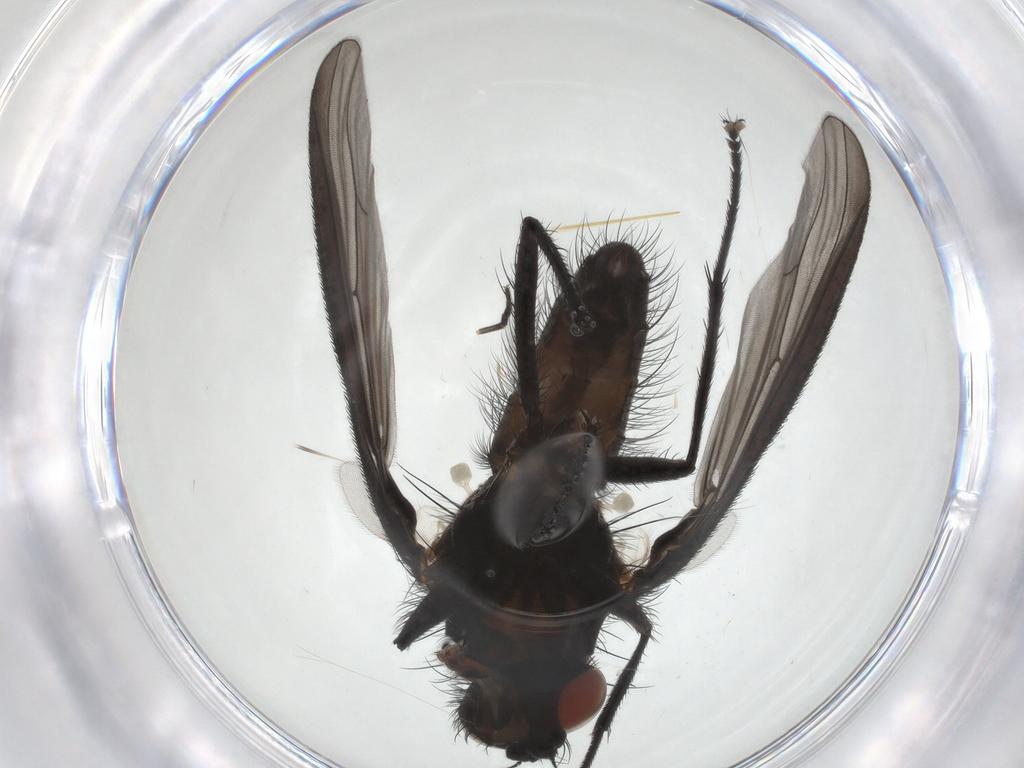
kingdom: Animalia
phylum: Arthropoda
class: Insecta
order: Diptera
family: Anthomyiidae
